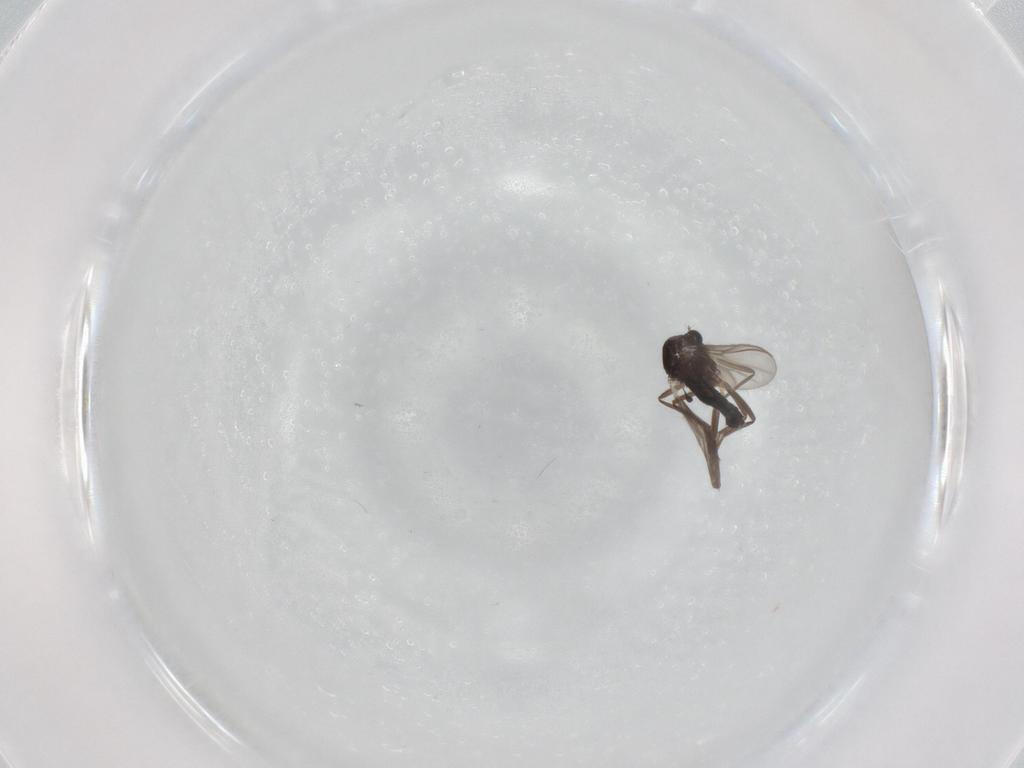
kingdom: Animalia
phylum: Arthropoda
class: Insecta
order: Diptera
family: Chironomidae
